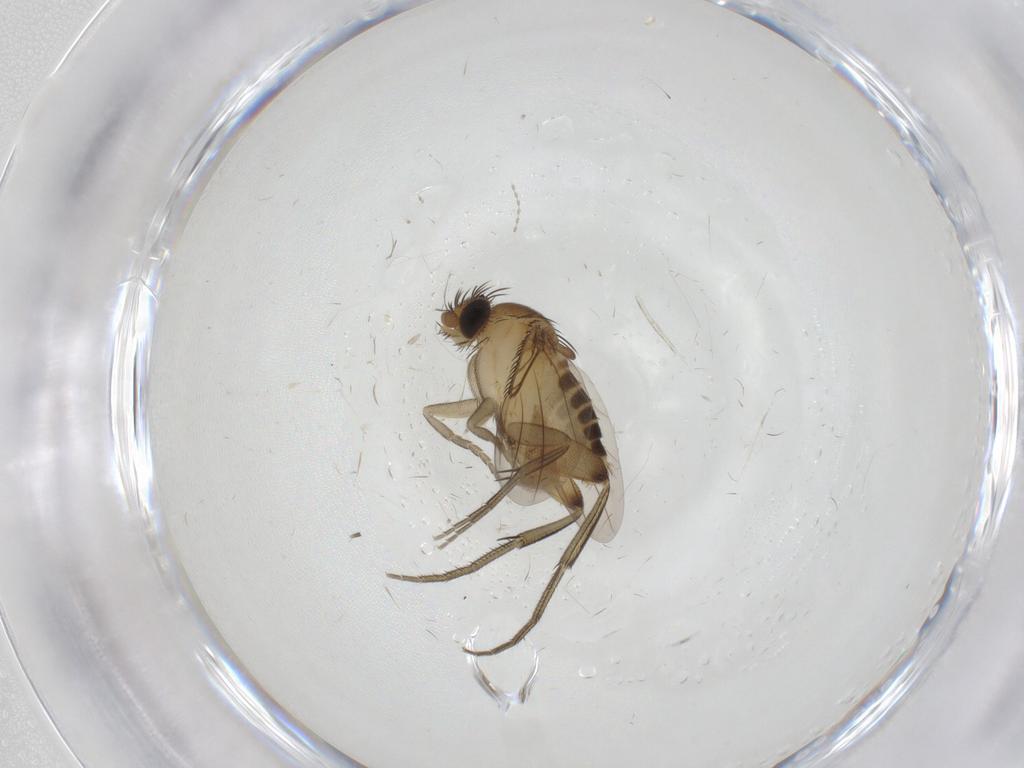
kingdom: Animalia
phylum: Arthropoda
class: Insecta
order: Diptera
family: Phoridae
